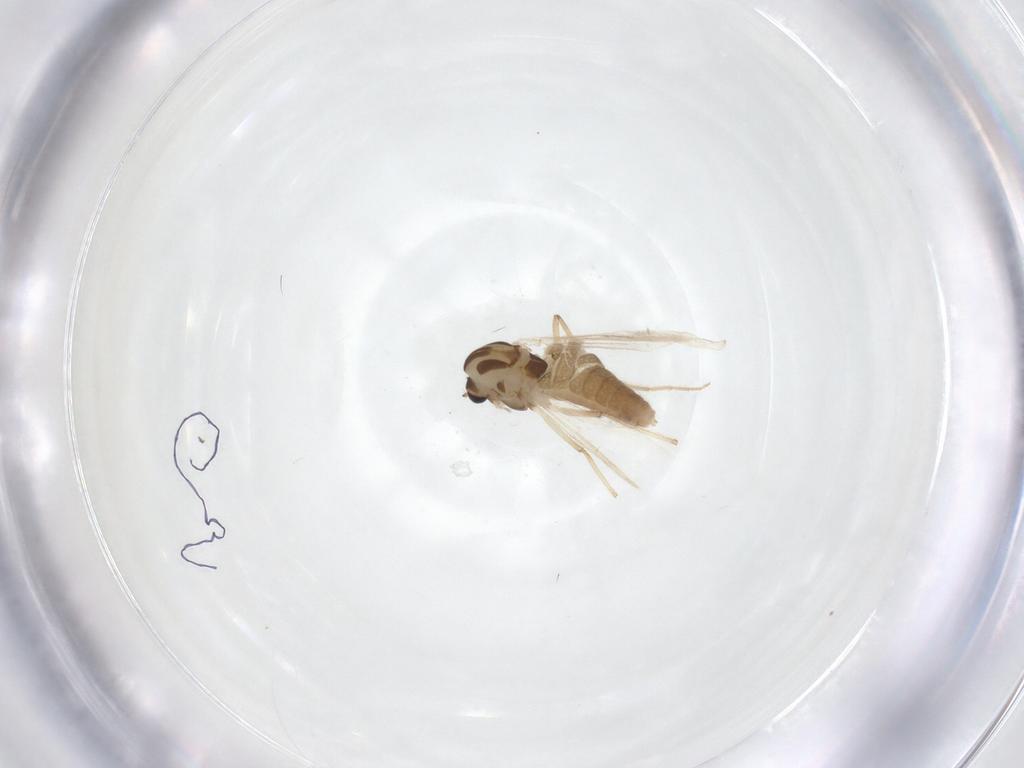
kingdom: Animalia
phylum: Arthropoda
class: Insecta
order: Diptera
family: Chironomidae
